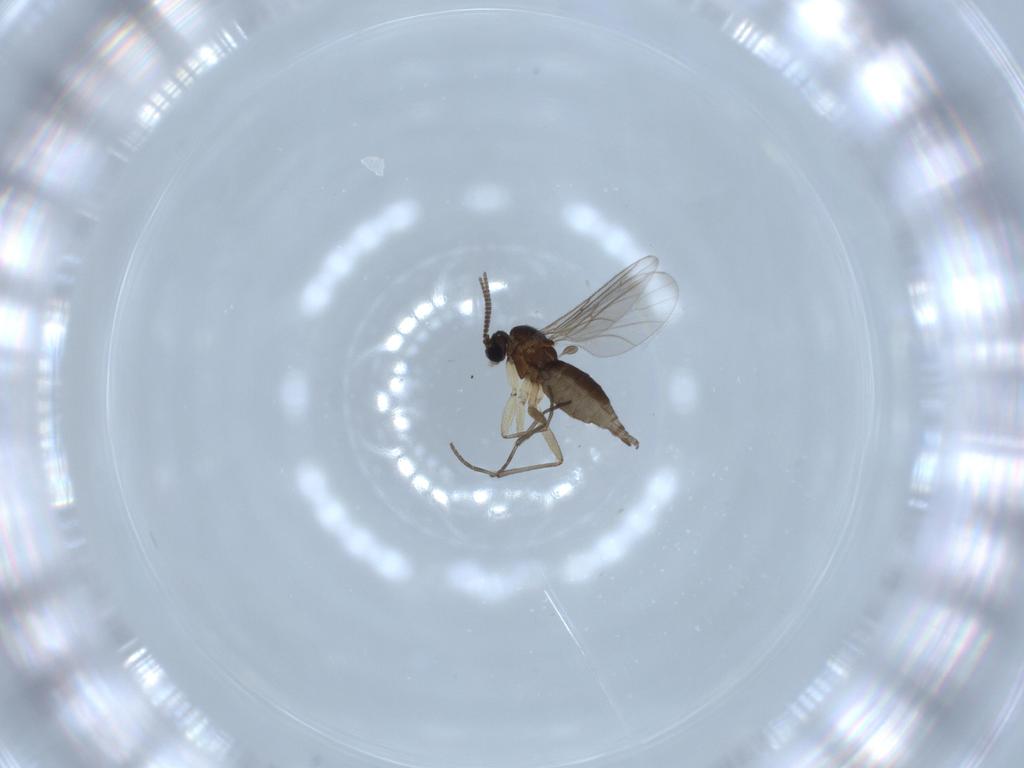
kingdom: Animalia
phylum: Arthropoda
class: Insecta
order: Diptera
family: Sciaridae
